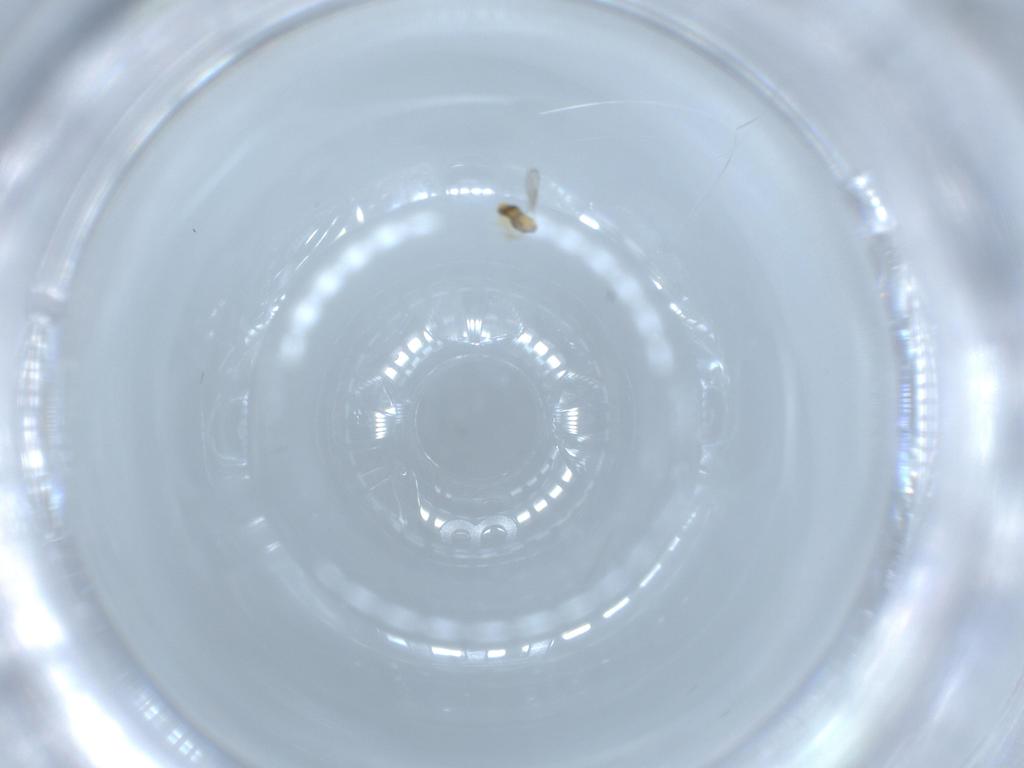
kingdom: Animalia
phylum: Arthropoda
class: Insecta
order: Hymenoptera
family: Aphelinidae
